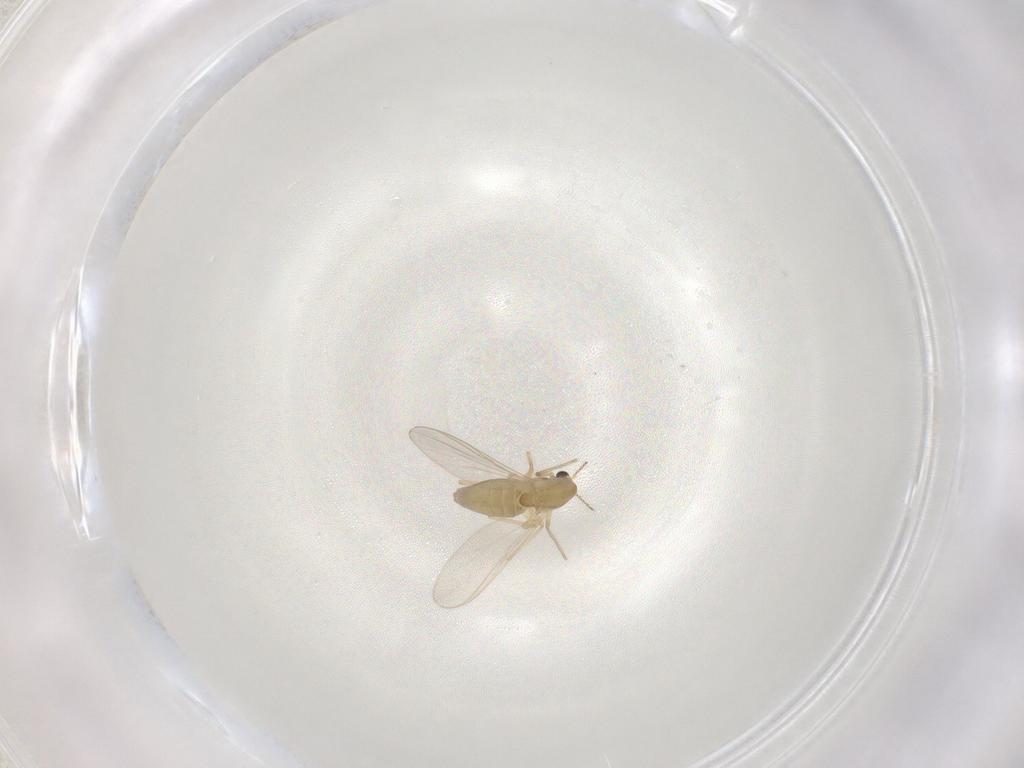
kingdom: Animalia
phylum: Arthropoda
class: Insecta
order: Diptera
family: Chironomidae
